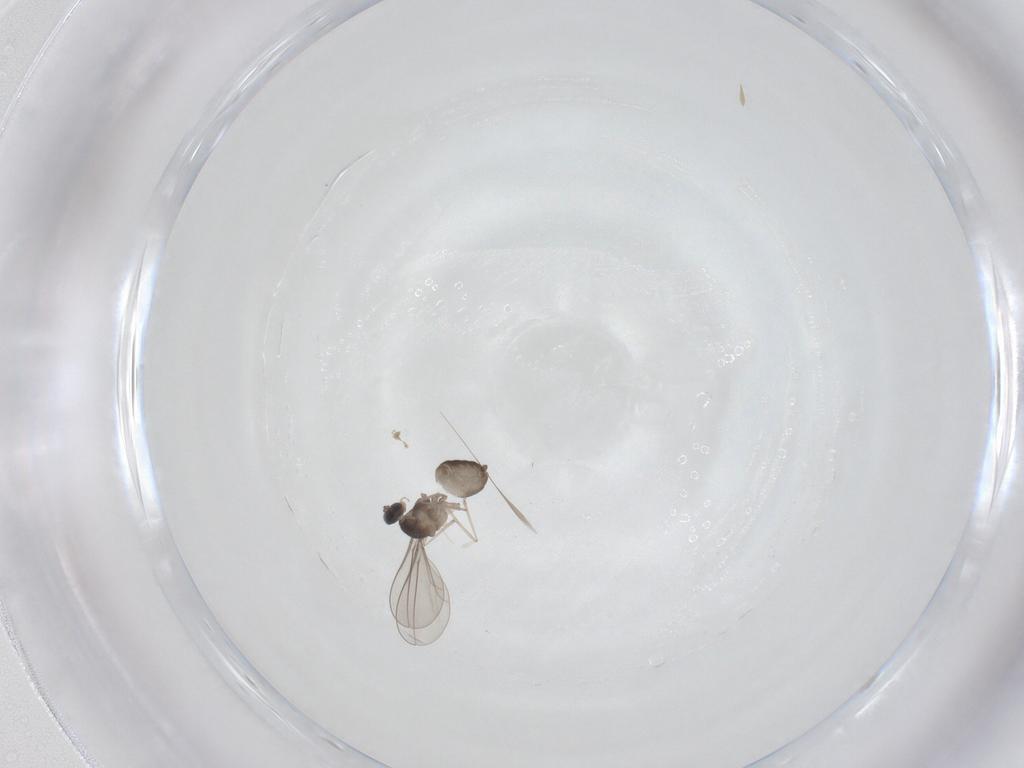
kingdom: Animalia
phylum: Arthropoda
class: Insecta
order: Diptera
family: Cecidomyiidae
